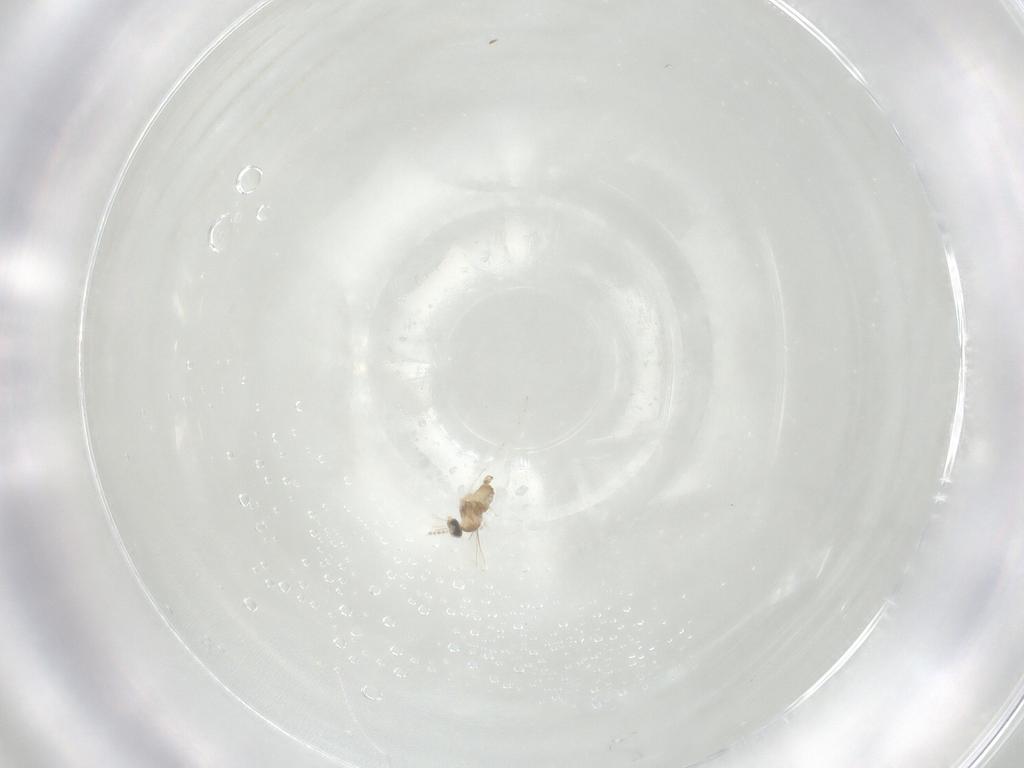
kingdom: Animalia
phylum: Arthropoda
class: Insecta
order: Diptera
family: Cecidomyiidae
